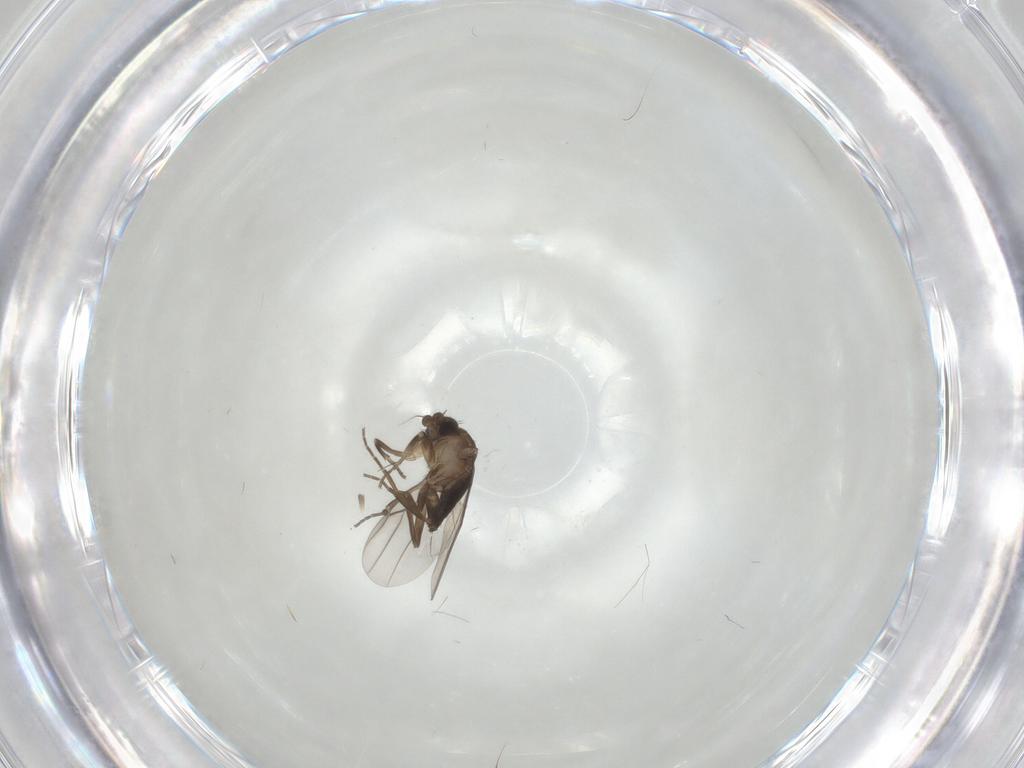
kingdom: Animalia
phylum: Arthropoda
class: Insecta
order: Diptera
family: Phoridae
